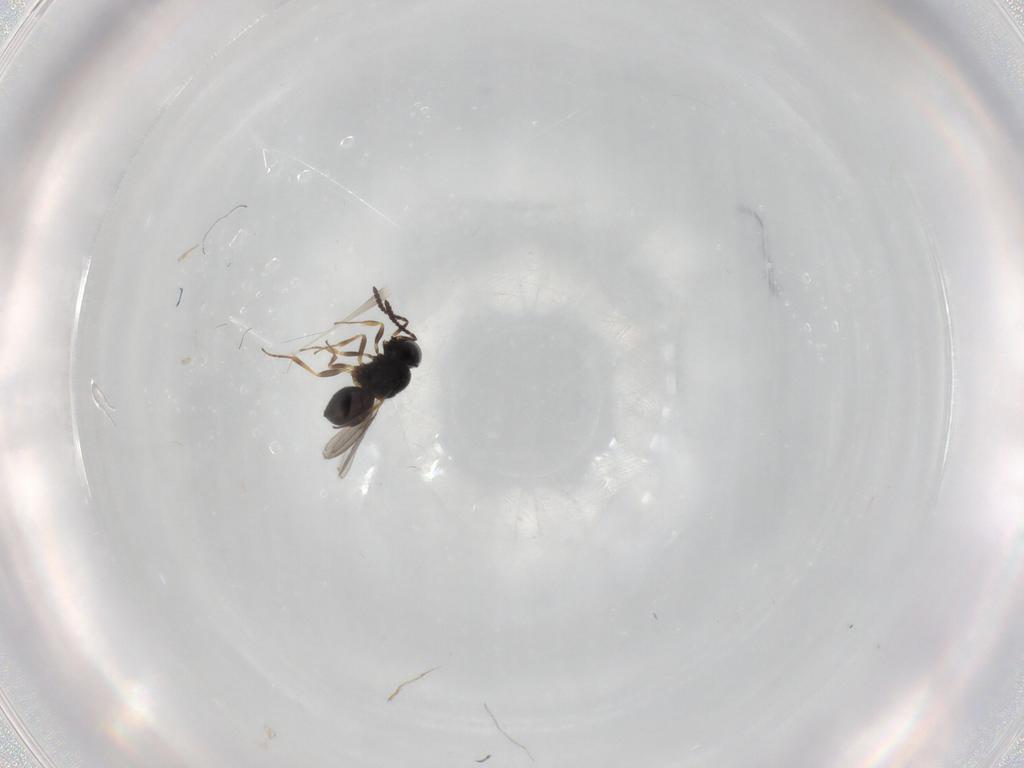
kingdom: Animalia
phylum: Arthropoda
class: Insecta
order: Hymenoptera
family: Scelionidae
